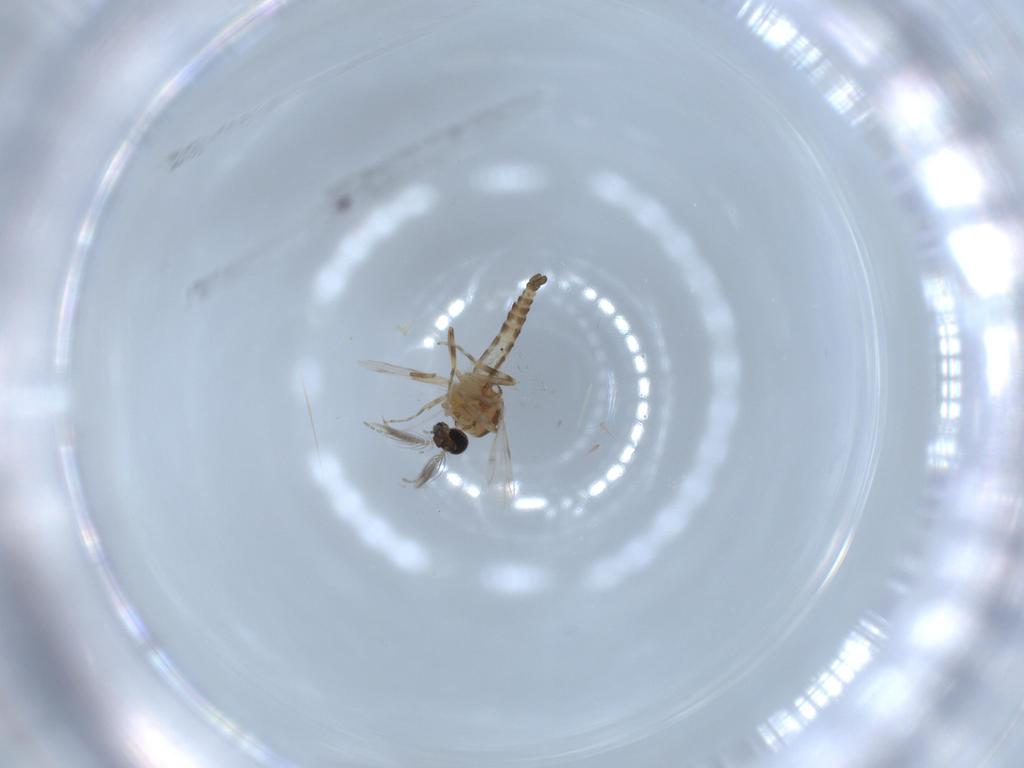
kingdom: Animalia
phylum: Arthropoda
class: Insecta
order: Diptera
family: Ceratopogonidae
